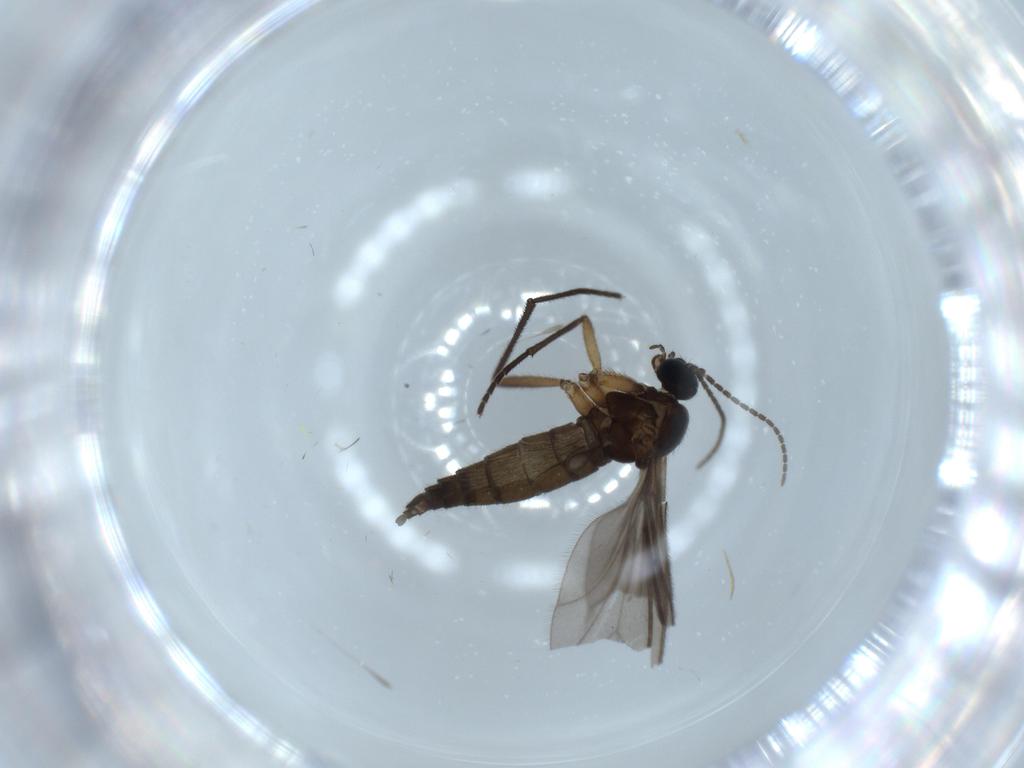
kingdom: Animalia
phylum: Arthropoda
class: Insecta
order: Diptera
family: Sciaridae
